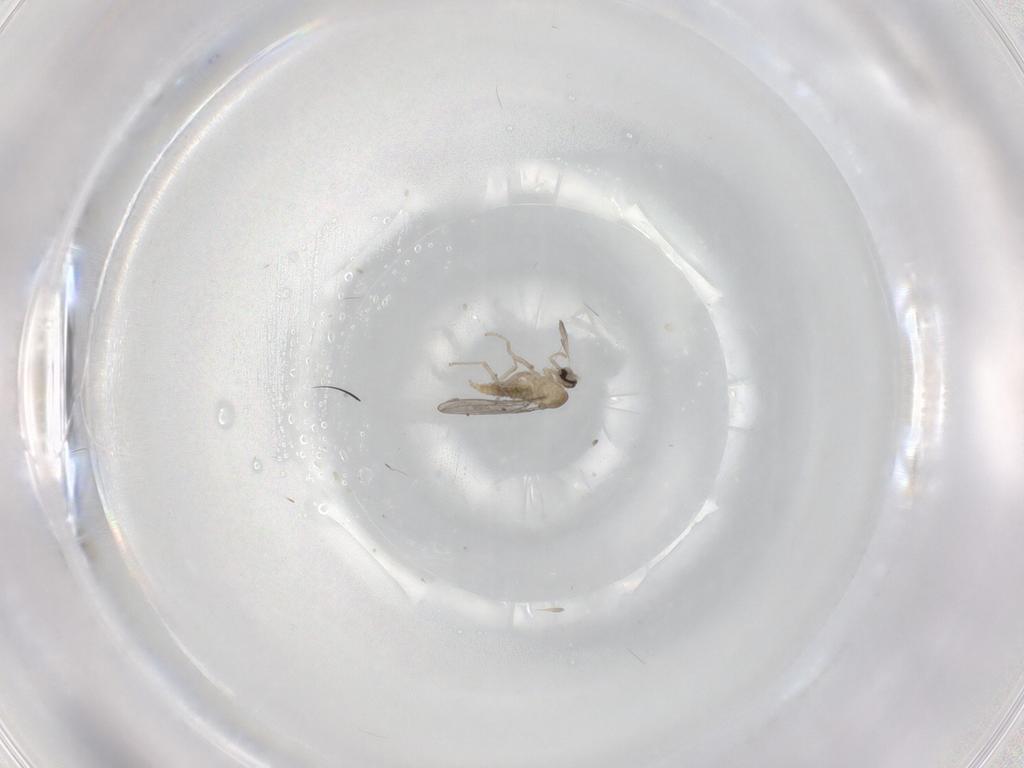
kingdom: Animalia
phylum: Arthropoda
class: Insecta
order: Diptera
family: Cecidomyiidae
